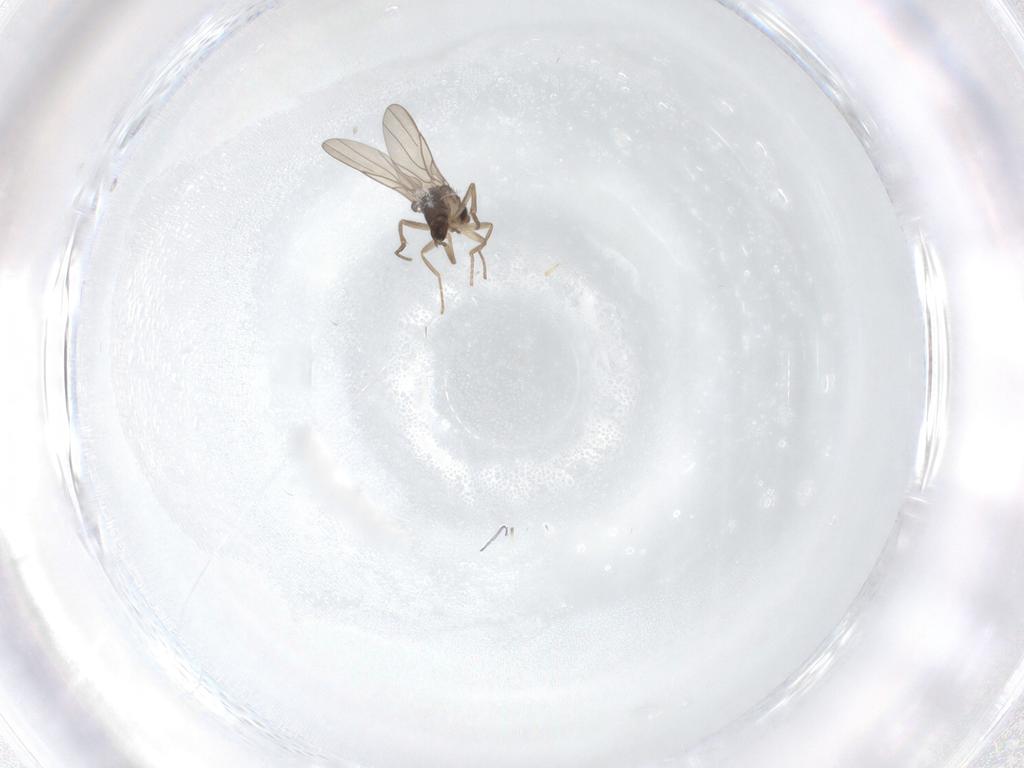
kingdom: Animalia
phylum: Arthropoda
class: Insecta
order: Diptera
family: Phoridae
